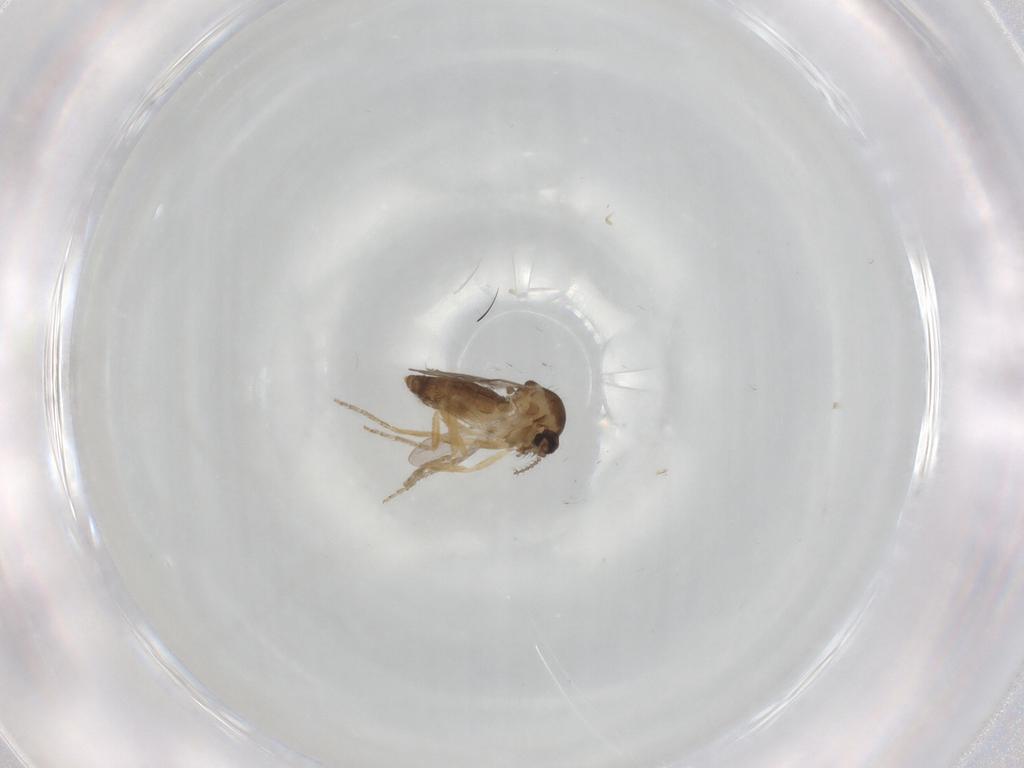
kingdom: Animalia
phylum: Arthropoda
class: Insecta
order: Diptera
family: Ceratopogonidae
